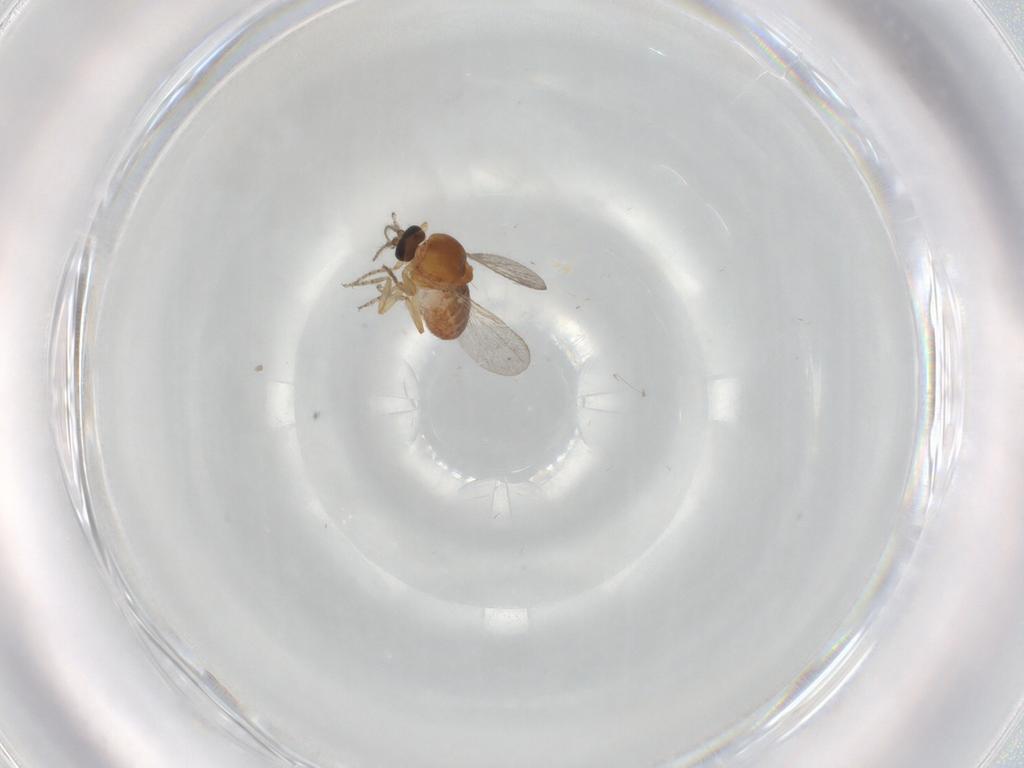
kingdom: Animalia
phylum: Arthropoda
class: Insecta
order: Diptera
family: Ceratopogonidae
